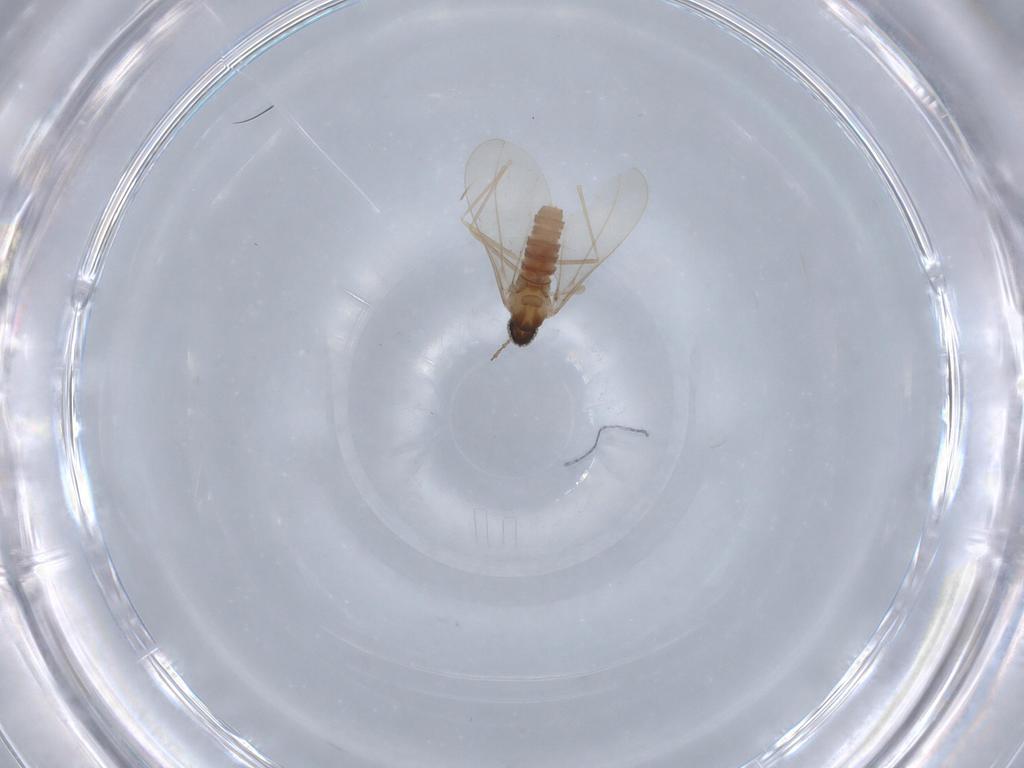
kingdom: Animalia
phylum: Arthropoda
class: Insecta
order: Diptera
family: Cecidomyiidae
